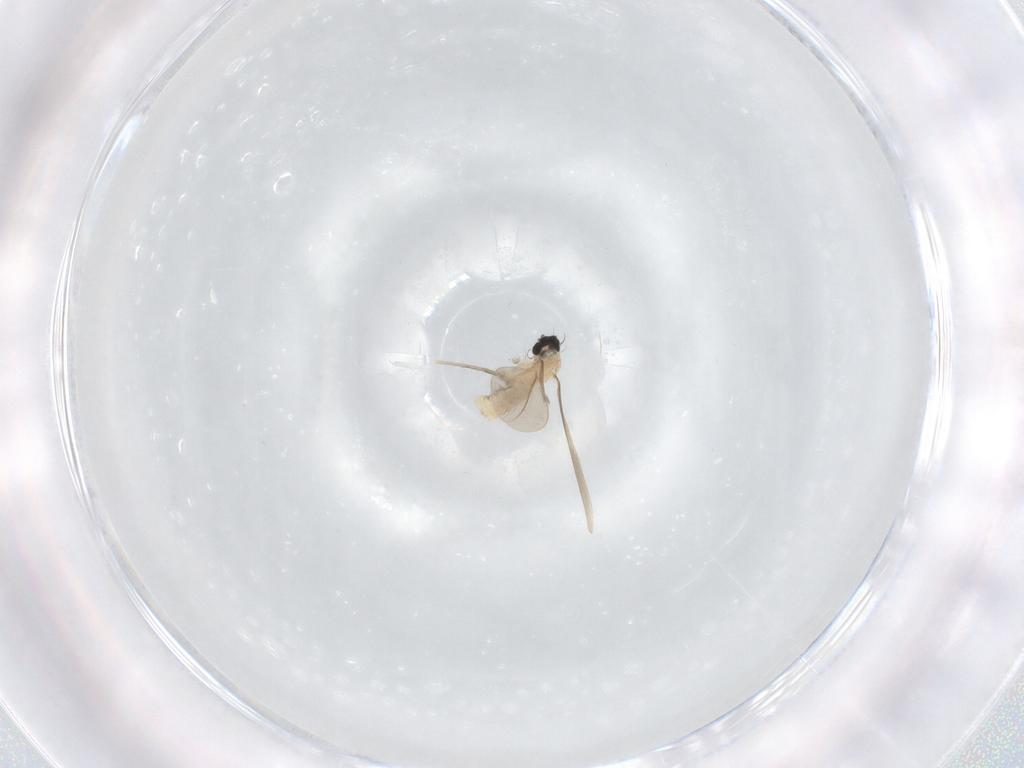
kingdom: Animalia
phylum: Arthropoda
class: Insecta
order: Diptera
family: Cecidomyiidae
